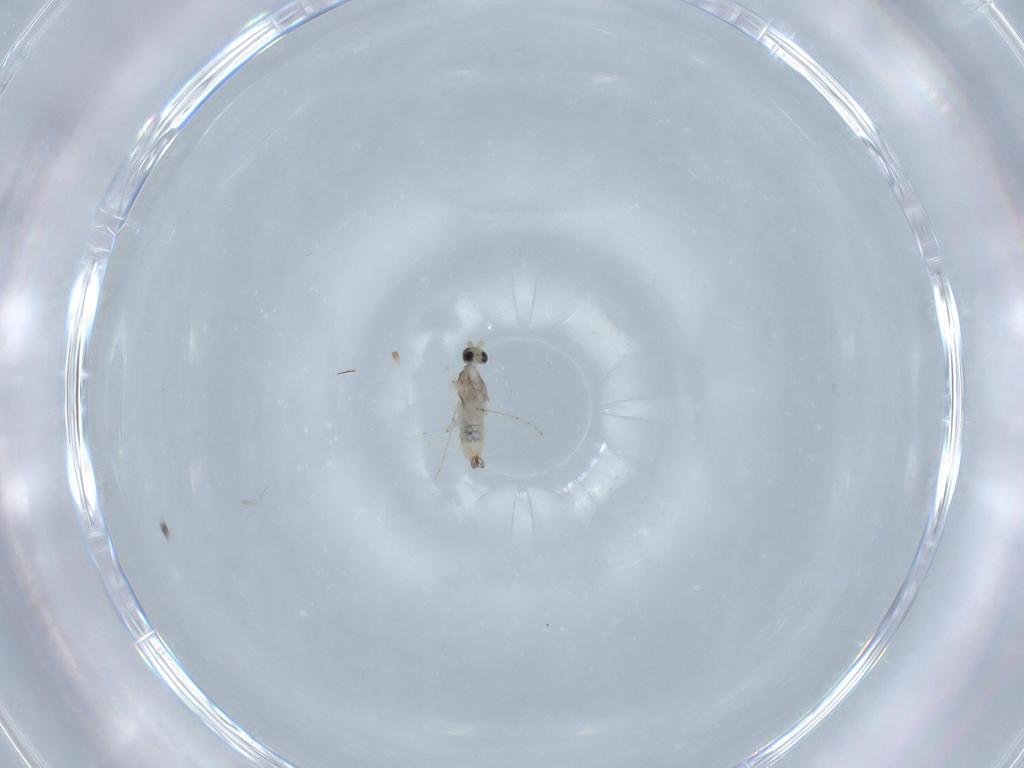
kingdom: Animalia
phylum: Arthropoda
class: Insecta
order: Diptera
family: Cecidomyiidae
